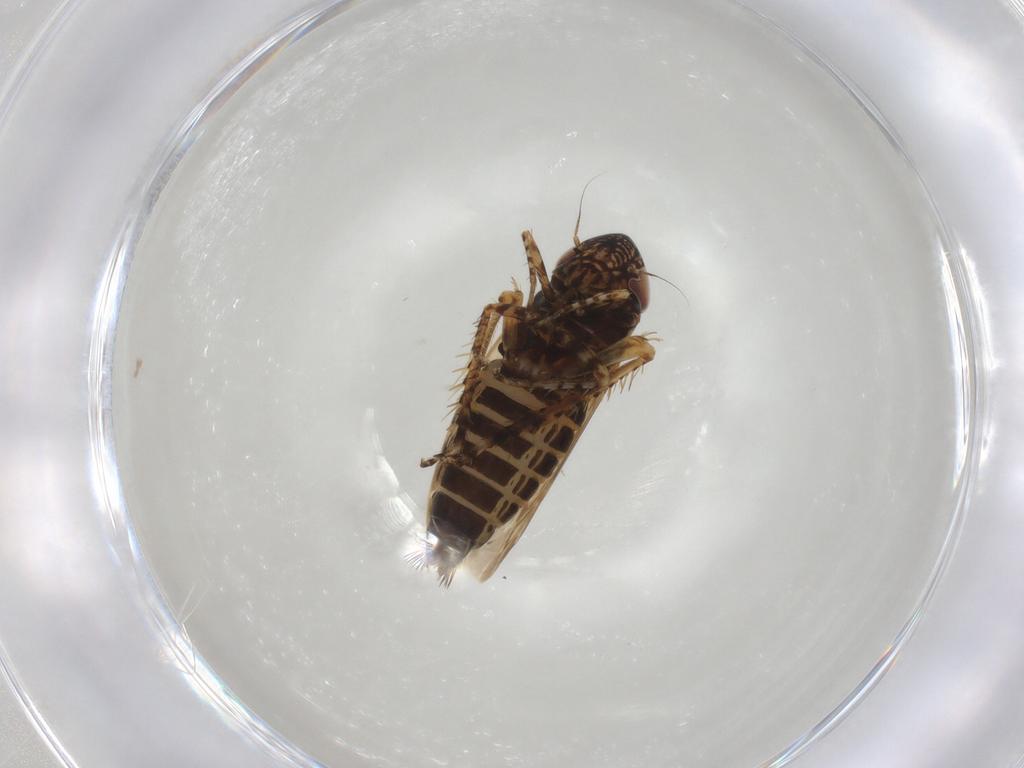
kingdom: Animalia
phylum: Arthropoda
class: Insecta
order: Hemiptera
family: Cicadellidae
